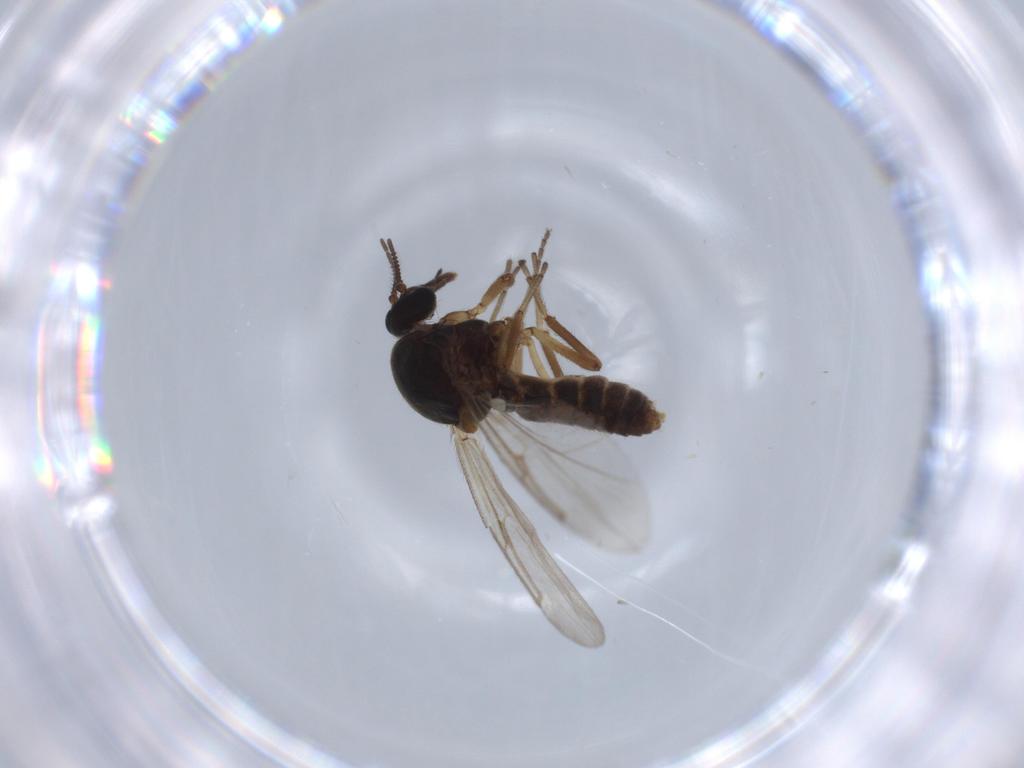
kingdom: Animalia
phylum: Arthropoda
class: Insecta
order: Diptera
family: Ceratopogonidae
